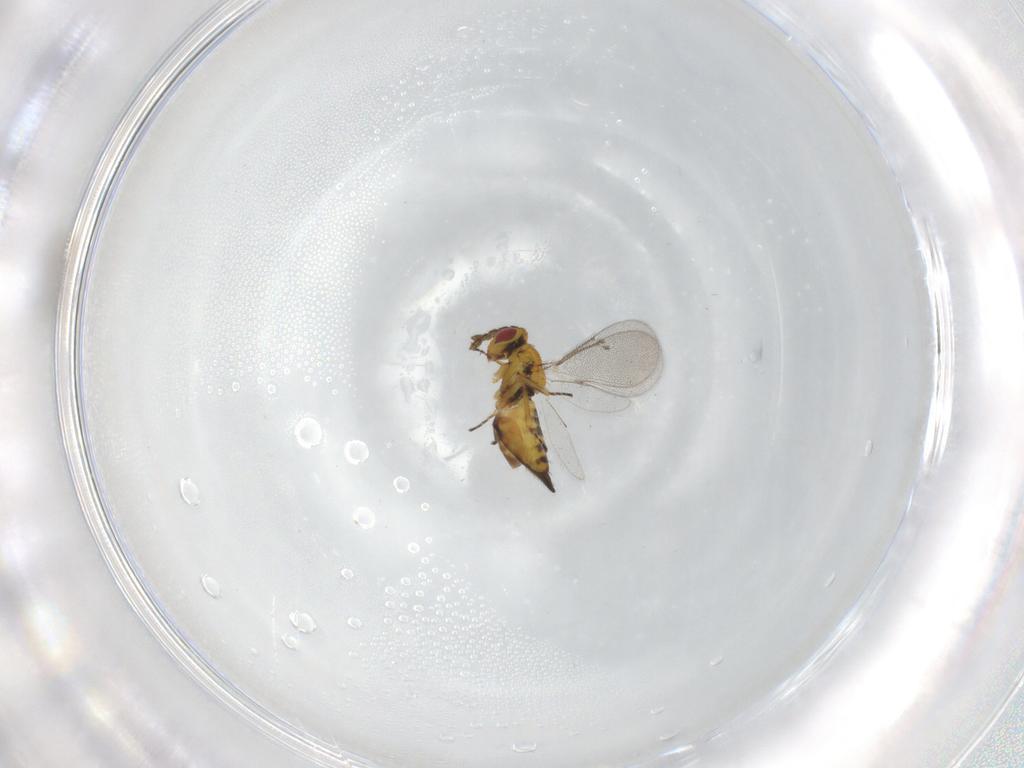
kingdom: Animalia
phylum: Arthropoda
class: Insecta
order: Hymenoptera
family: Eulophidae
